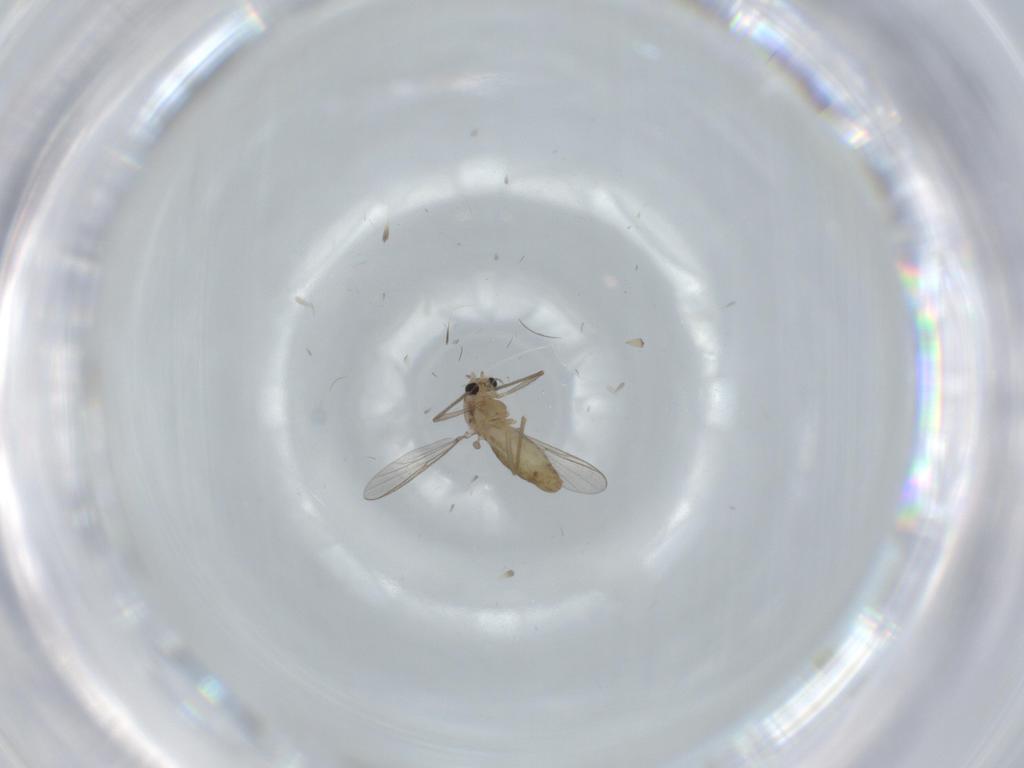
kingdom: Animalia
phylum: Arthropoda
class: Insecta
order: Diptera
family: Chironomidae
